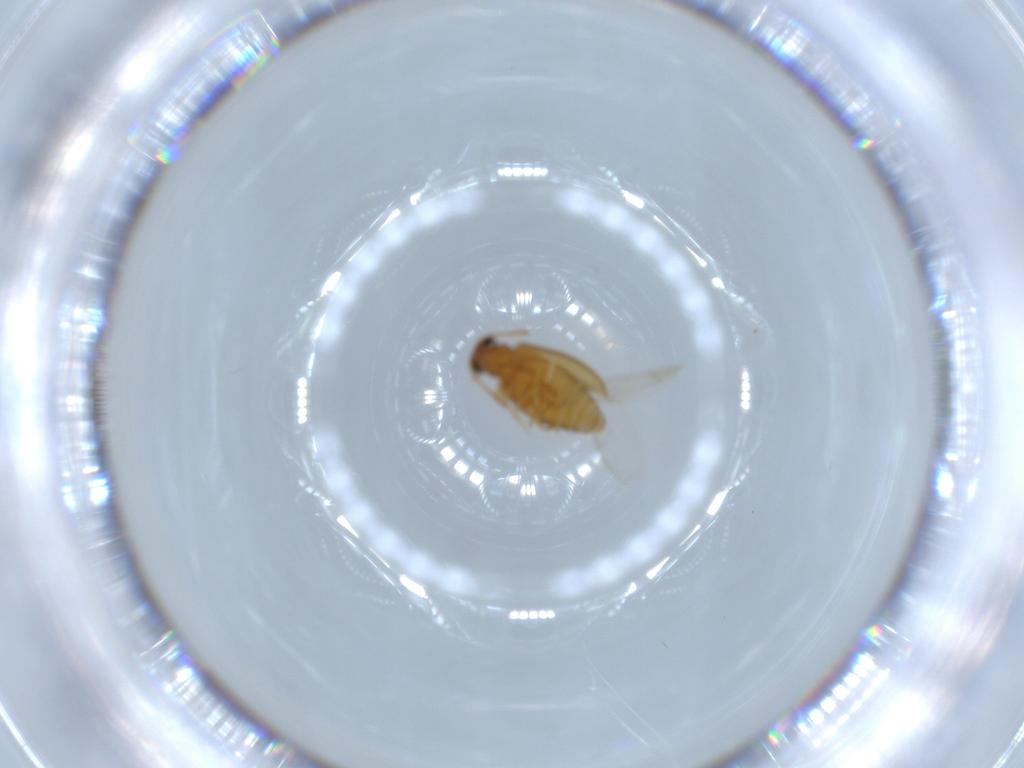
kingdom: Animalia
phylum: Arthropoda
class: Insecta
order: Coleoptera
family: Aderidae
